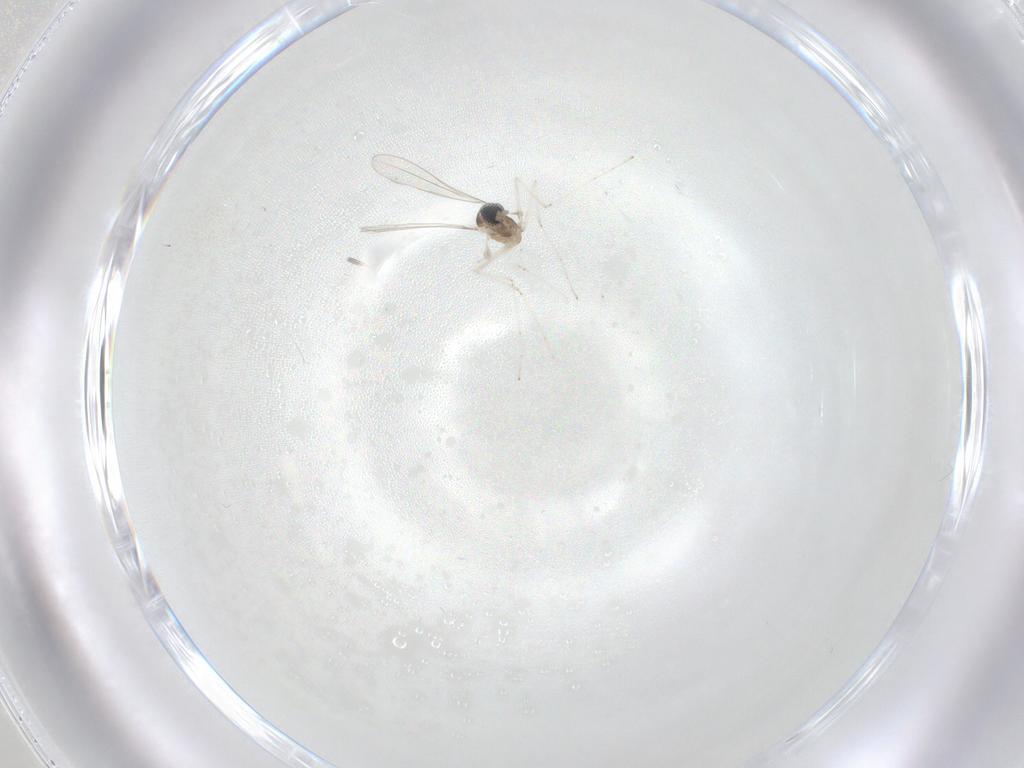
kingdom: Animalia
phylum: Arthropoda
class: Insecta
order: Diptera
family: Cecidomyiidae
